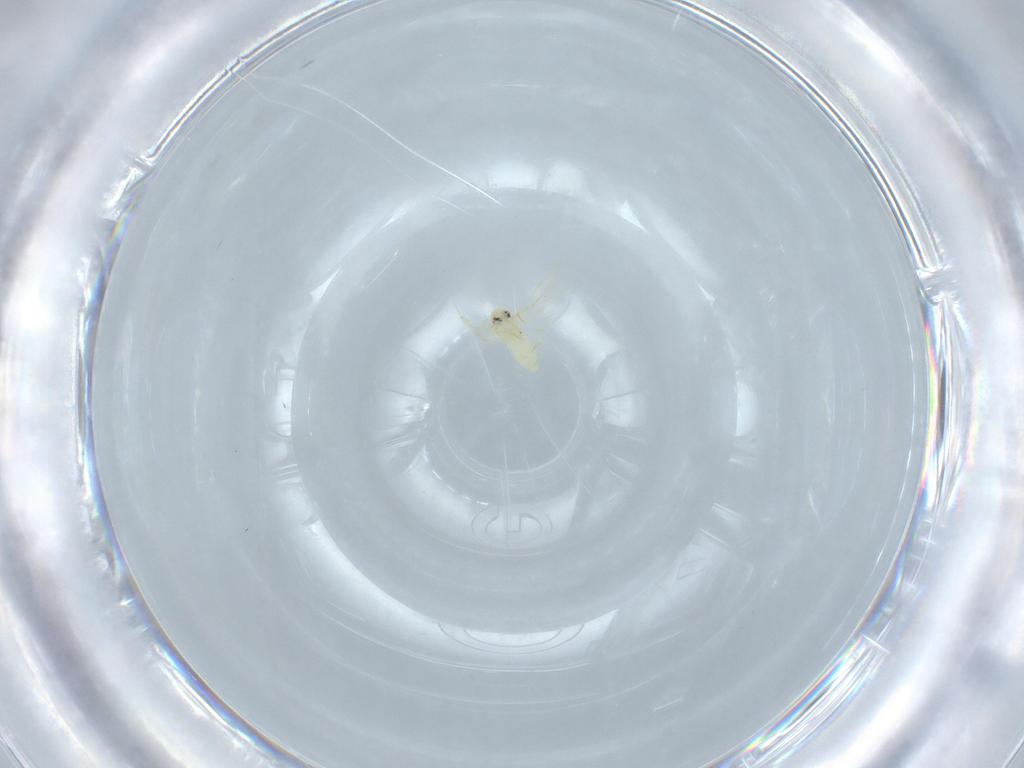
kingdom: Animalia
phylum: Arthropoda
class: Insecta
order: Hemiptera
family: Aleyrodidae
